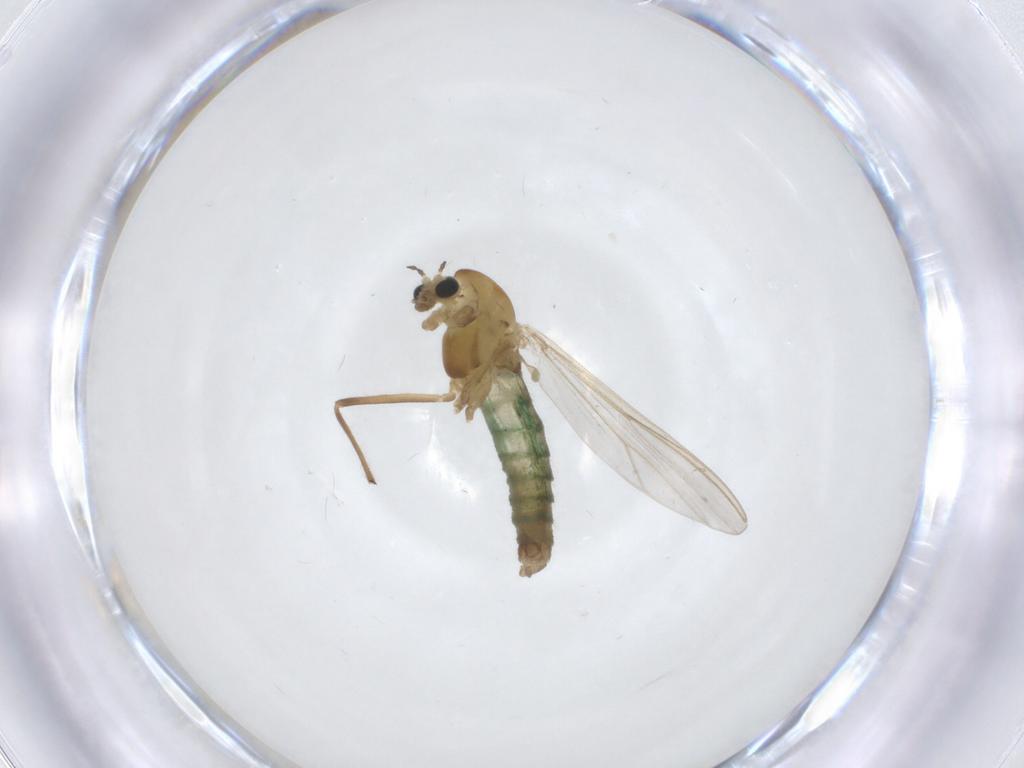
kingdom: Animalia
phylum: Arthropoda
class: Insecta
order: Diptera
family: Chironomidae
